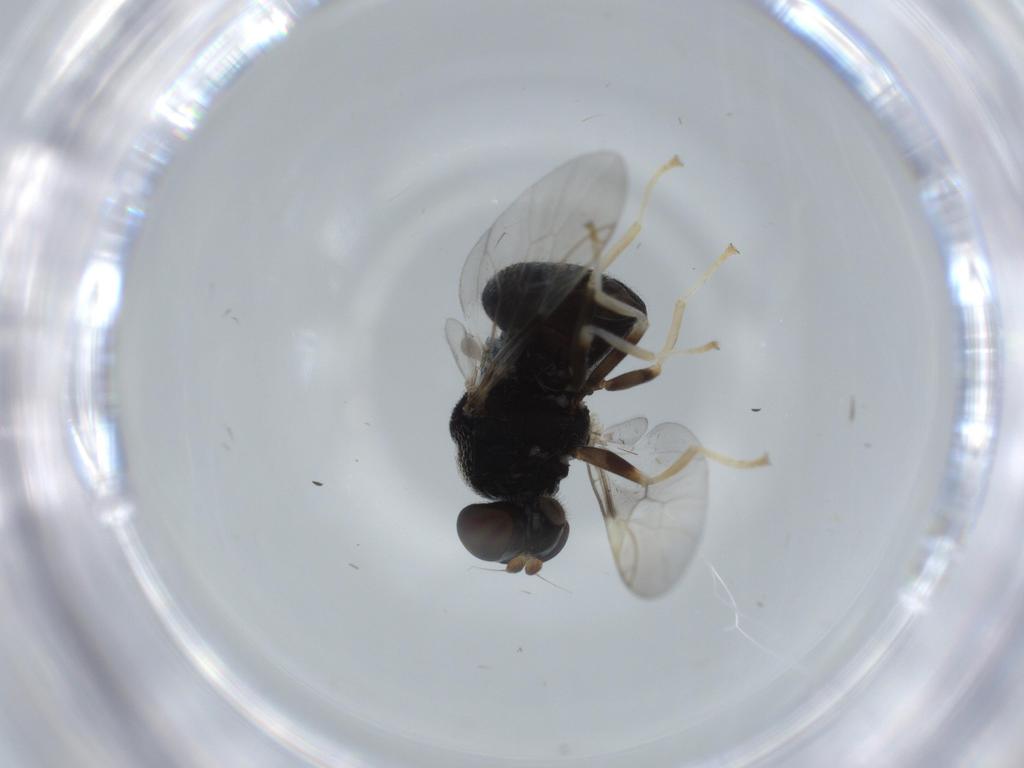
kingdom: Animalia
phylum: Arthropoda
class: Insecta
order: Diptera
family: Stratiomyidae
